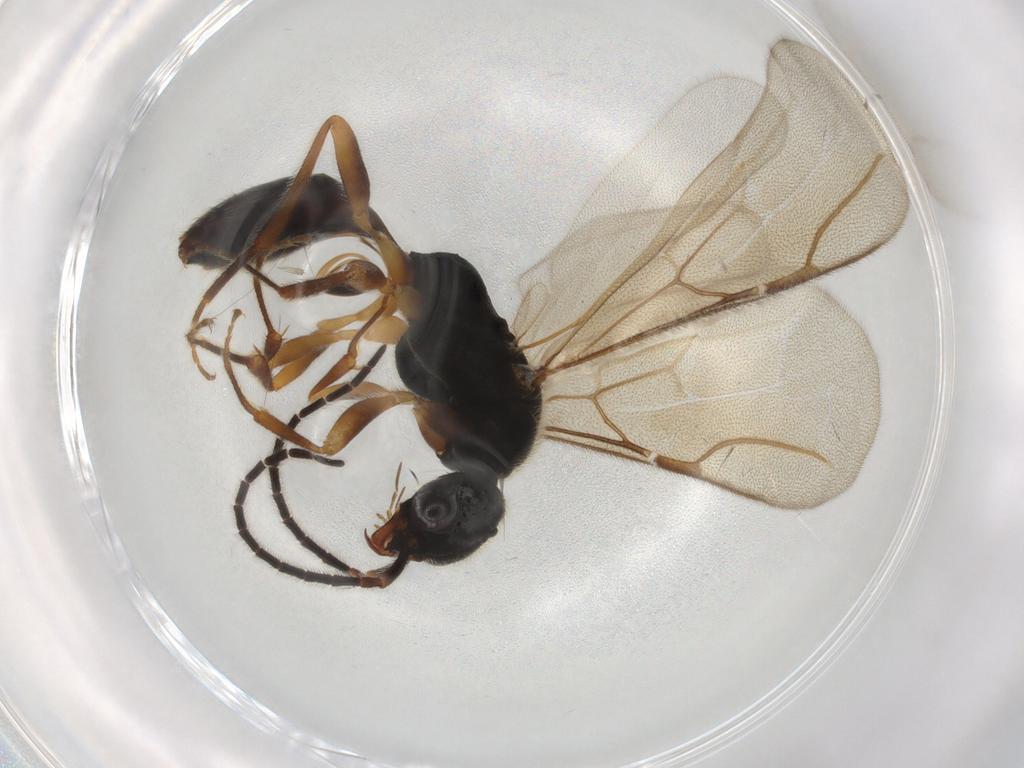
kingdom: Animalia
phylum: Arthropoda
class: Insecta
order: Hymenoptera
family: Bethylidae
